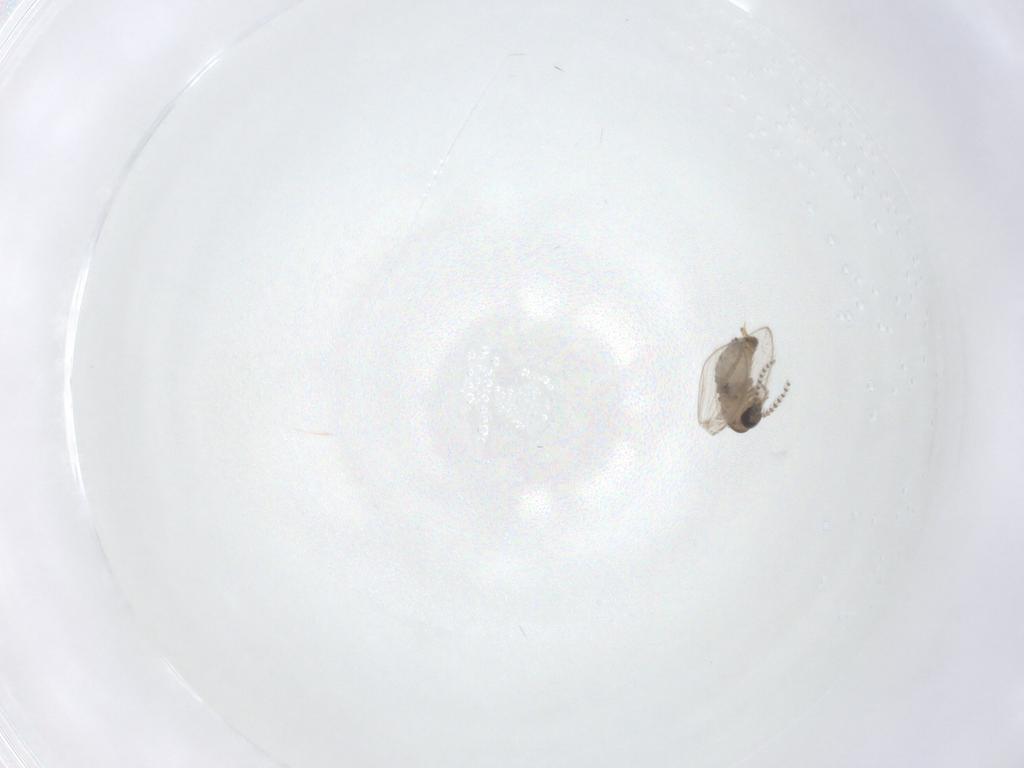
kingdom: Animalia
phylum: Arthropoda
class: Insecta
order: Diptera
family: Psychodidae
